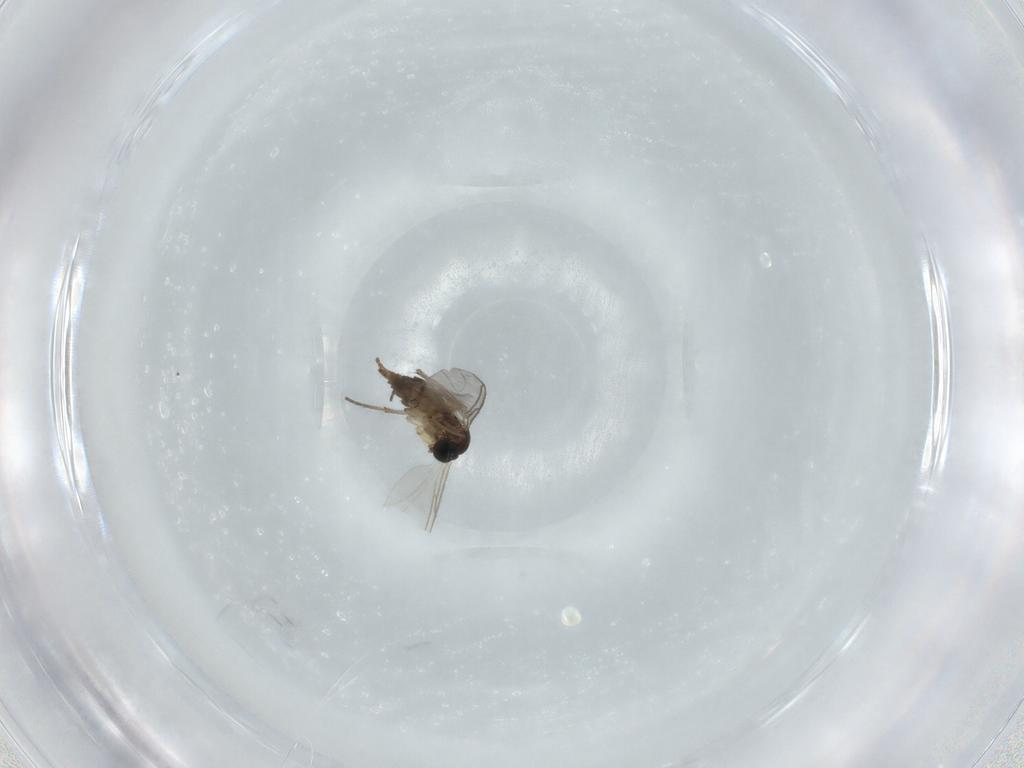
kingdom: Animalia
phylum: Arthropoda
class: Insecta
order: Diptera
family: Sciaridae
